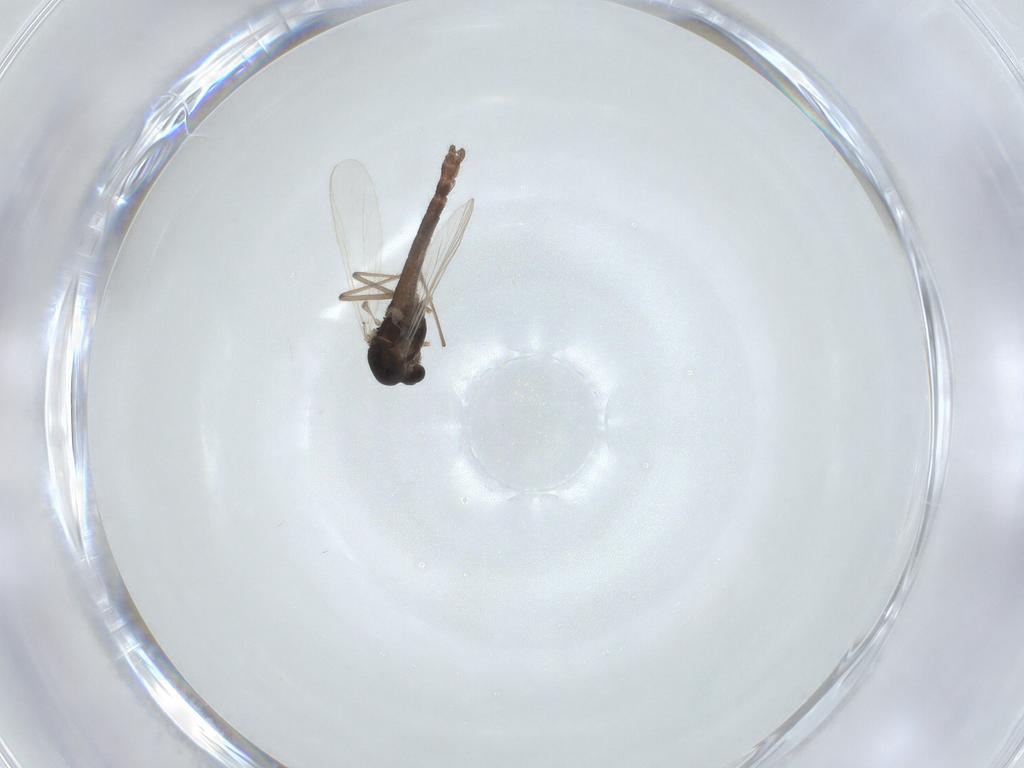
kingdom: Animalia
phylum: Arthropoda
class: Insecta
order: Diptera
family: Chironomidae
